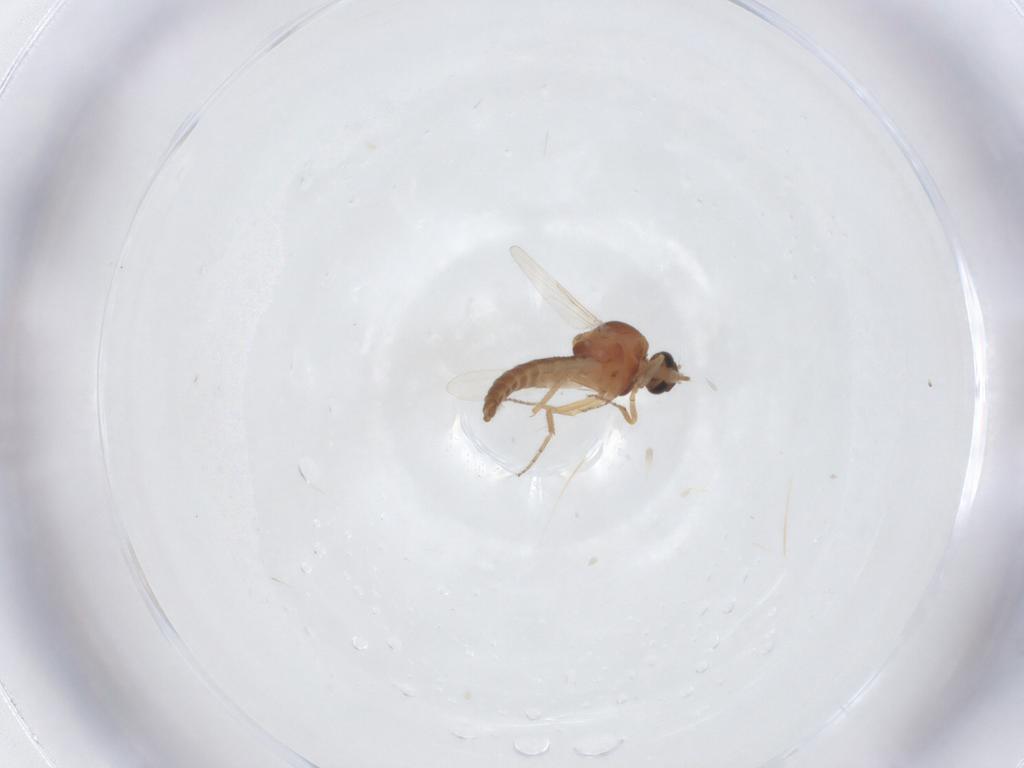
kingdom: Animalia
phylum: Arthropoda
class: Insecta
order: Diptera
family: Ceratopogonidae
